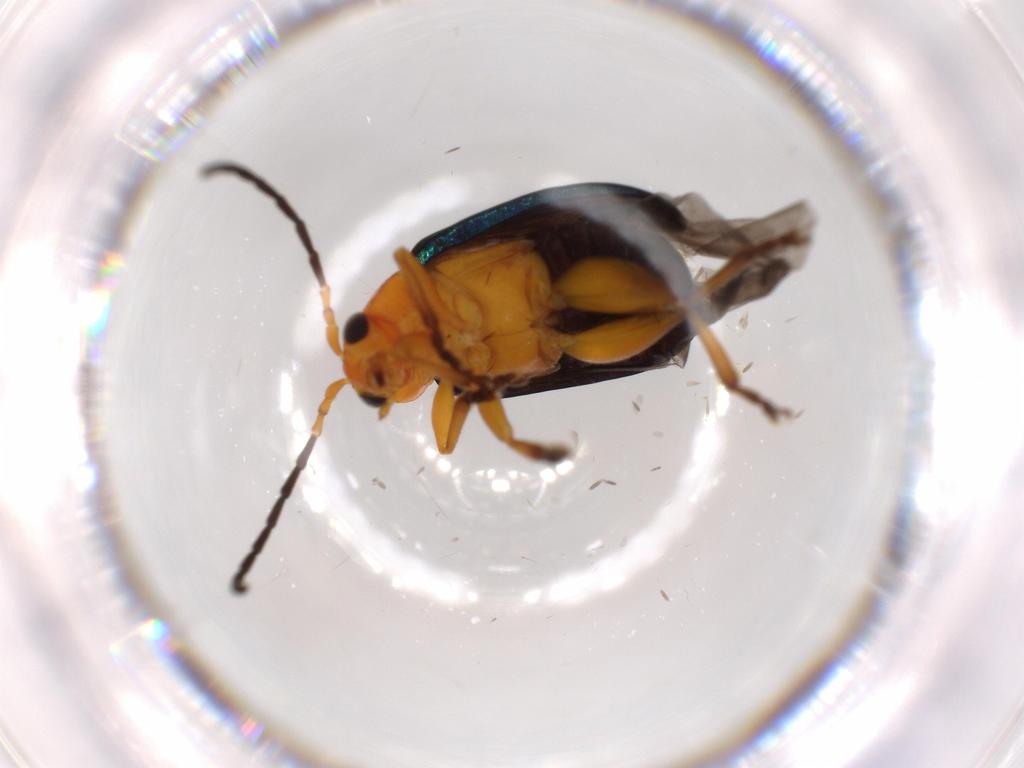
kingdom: Animalia
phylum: Arthropoda
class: Insecta
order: Coleoptera
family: Chrysomelidae
